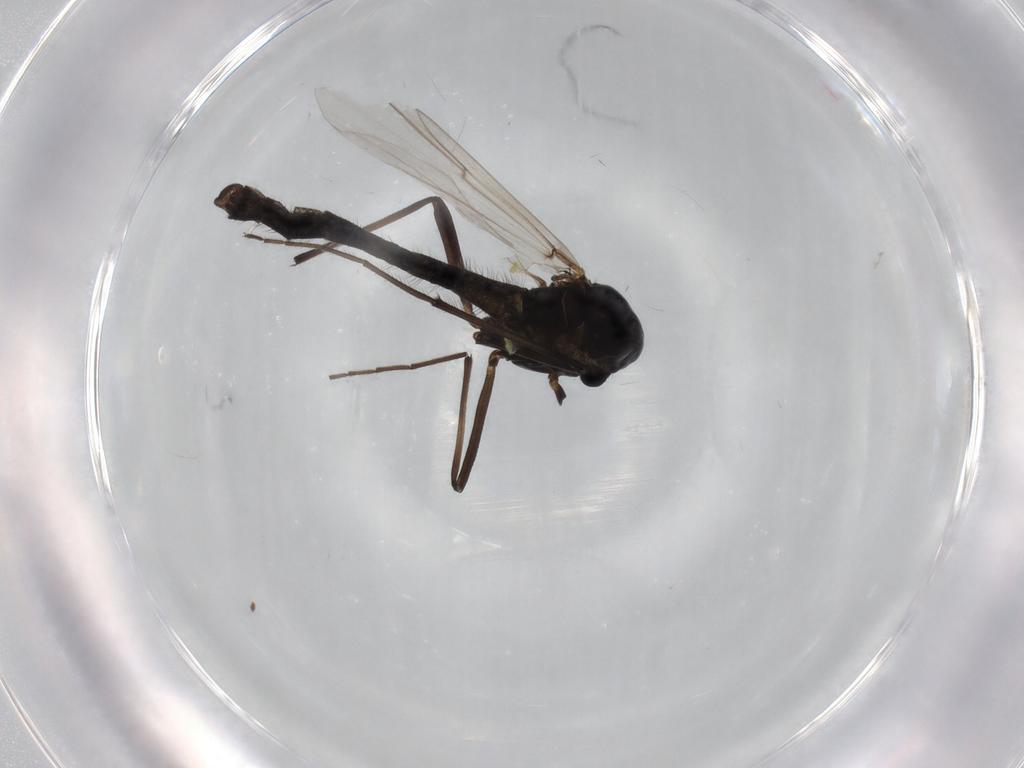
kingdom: Animalia
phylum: Arthropoda
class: Insecta
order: Diptera
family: Chironomidae
